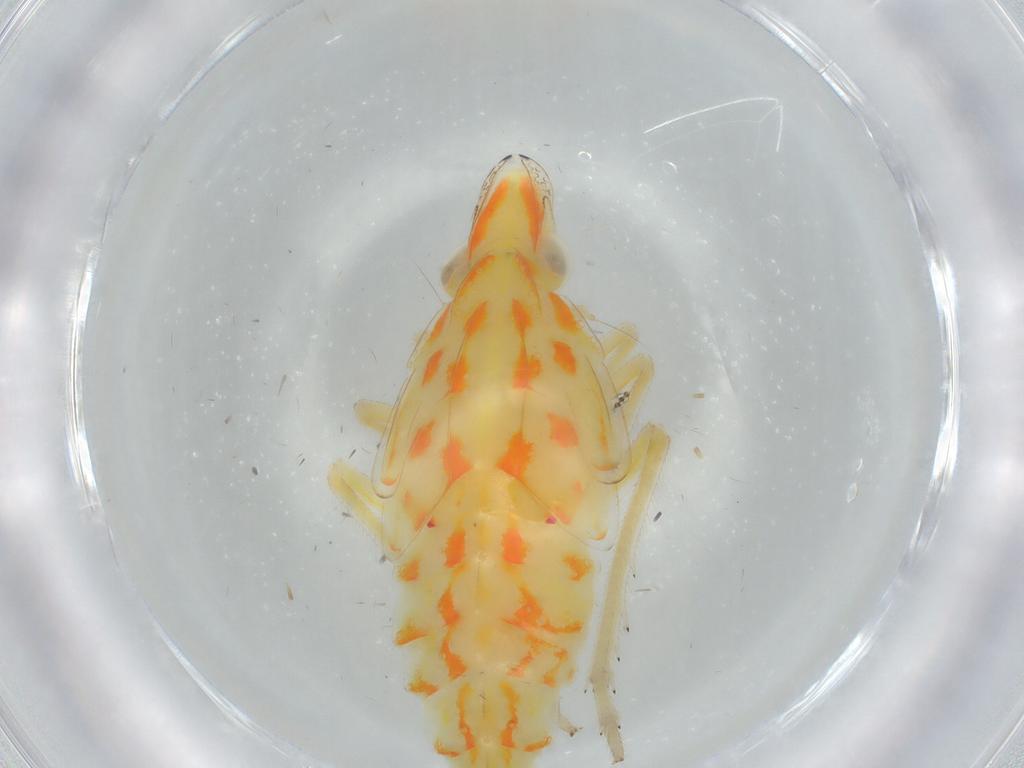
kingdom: Animalia
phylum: Arthropoda
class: Insecta
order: Hemiptera
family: Tropiduchidae
